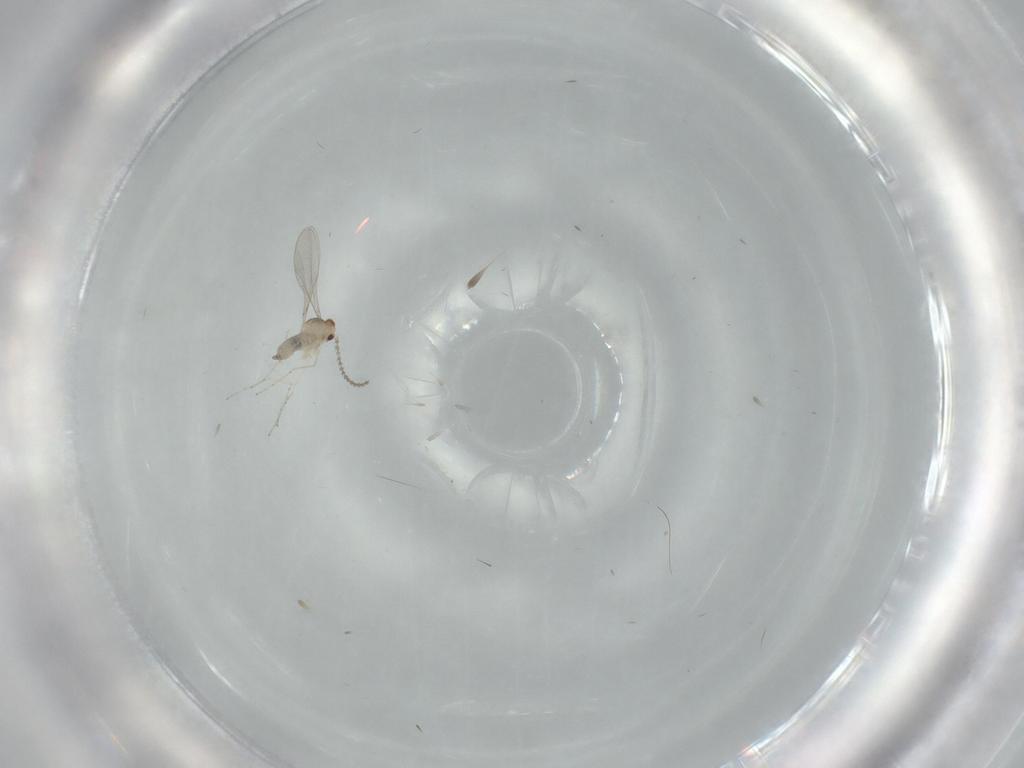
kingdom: Animalia
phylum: Arthropoda
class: Insecta
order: Diptera
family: Cecidomyiidae
